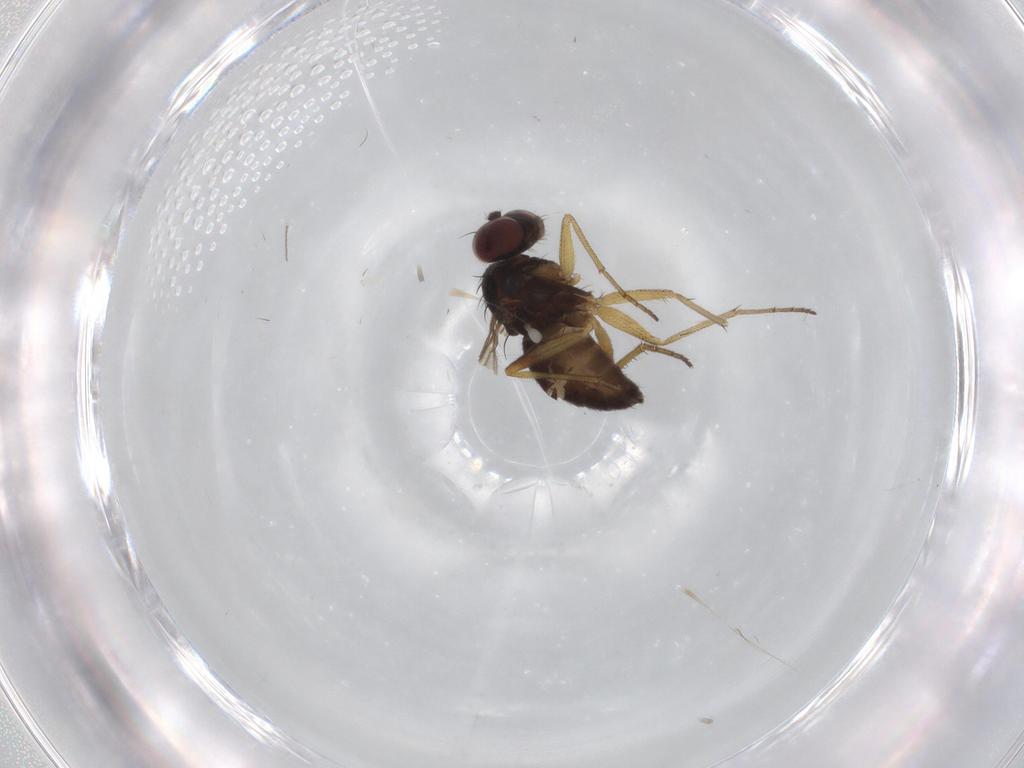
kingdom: Animalia
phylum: Arthropoda
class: Insecta
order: Diptera
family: Dolichopodidae
